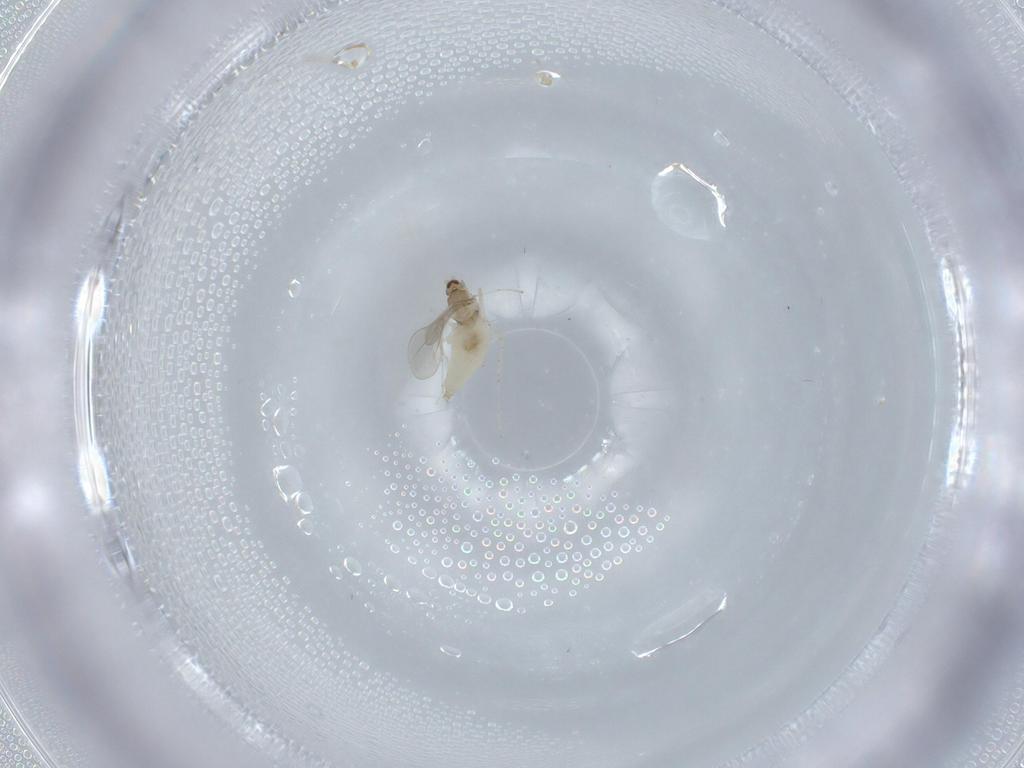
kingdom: Animalia
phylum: Arthropoda
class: Insecta
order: Diptera
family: Cecidomyiidae
